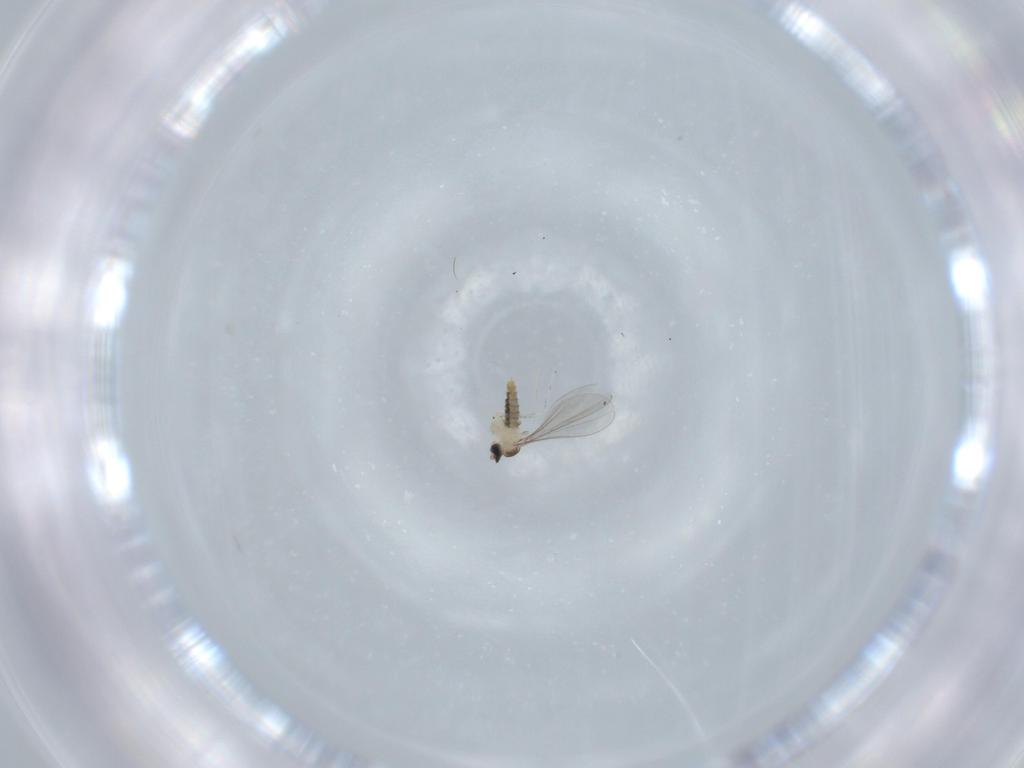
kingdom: Animalia
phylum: Arthropoda
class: Insecta
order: Diptera
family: Cecidomyiidae
